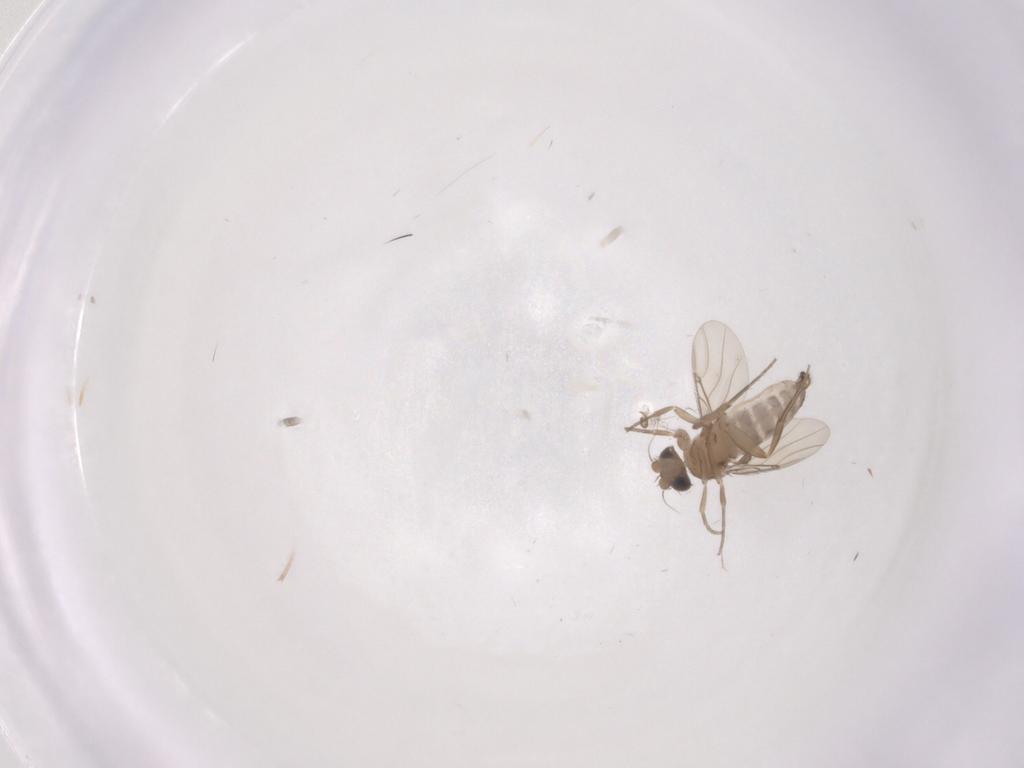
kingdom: Animalia
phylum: Arthropoda
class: Insecta
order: Diptera
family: Phoridae
